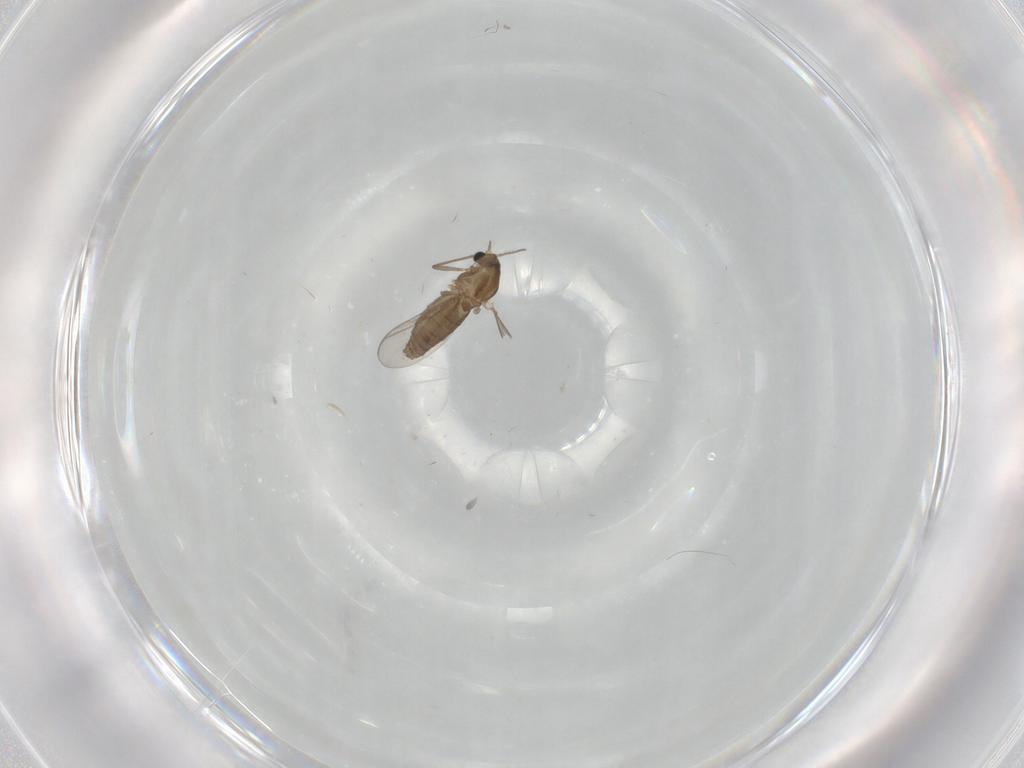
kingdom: Animalia
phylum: Arthropoda
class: Insecta
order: Diptera
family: Chironomidae
